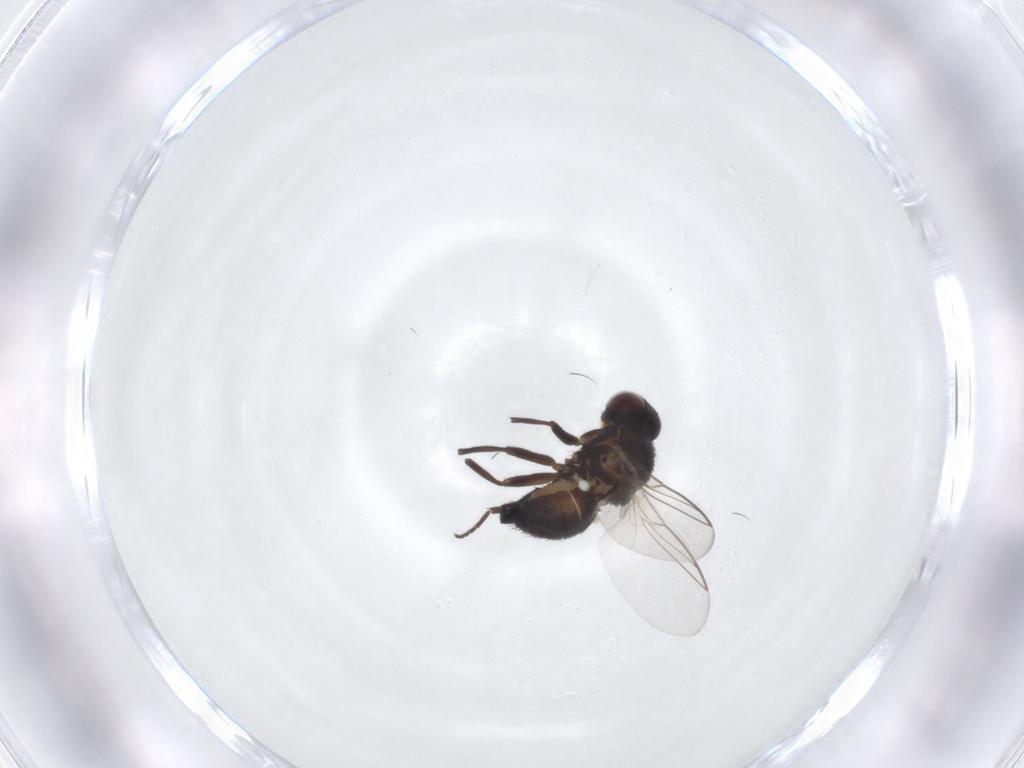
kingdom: Animalia
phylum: Arthropoda
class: Insecta
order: Diptera
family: Agromyzidae
